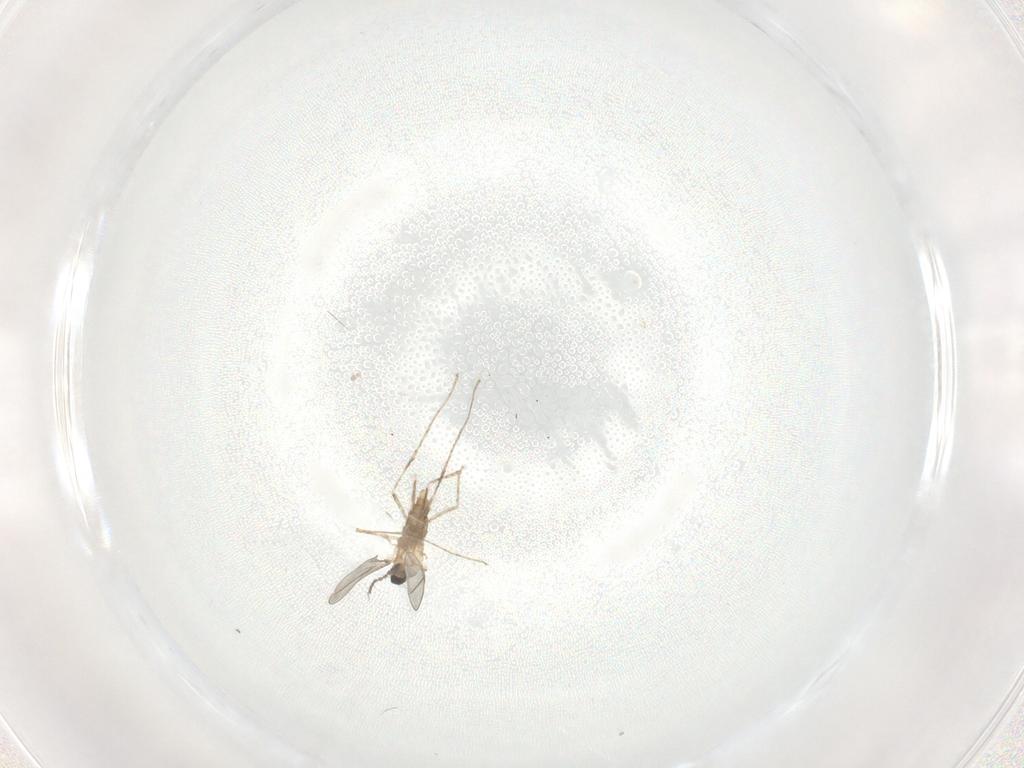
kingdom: Animalia
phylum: Arthropoda
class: Insecta
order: Diptera
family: Cecidomyiidae
